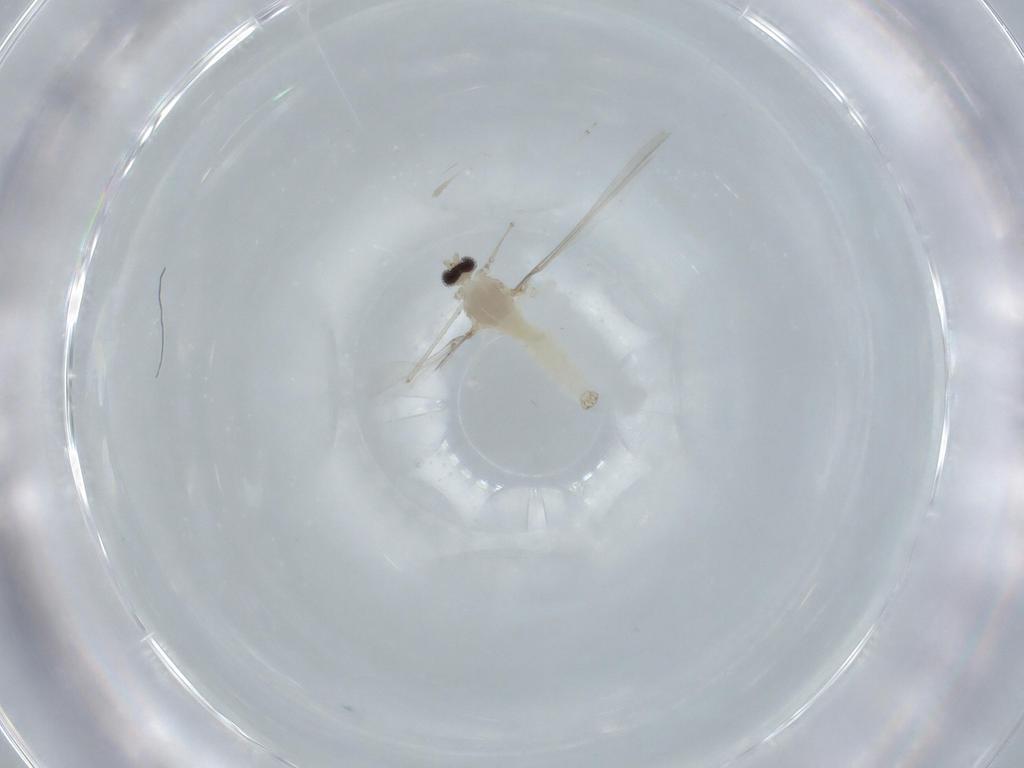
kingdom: Animalia
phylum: Arthropoda
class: Insecta
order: Diptera
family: Cecidomyiidae
